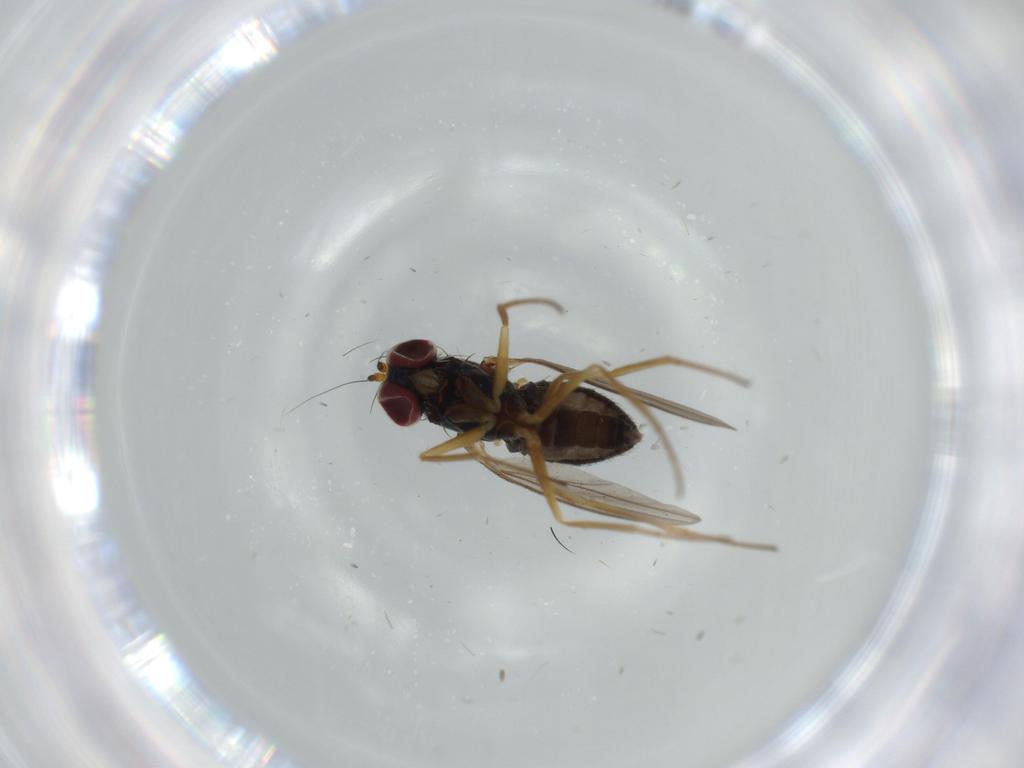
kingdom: Animalia
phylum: Arthropoda
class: Insecta
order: Diptera
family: Dolichopodidae
